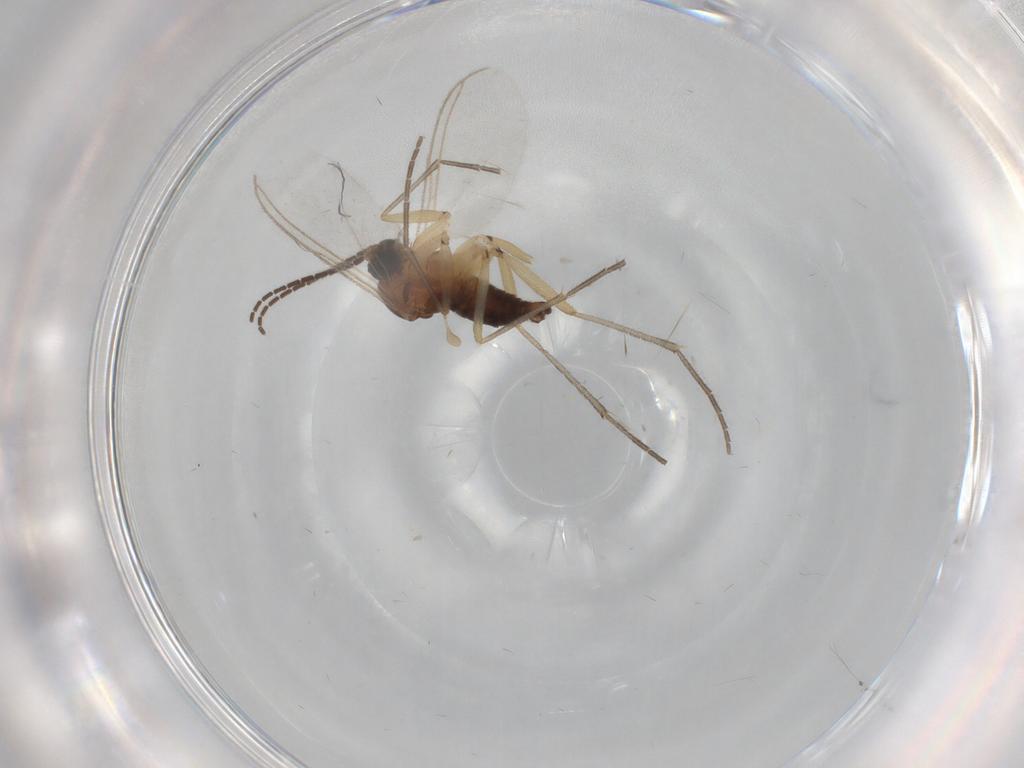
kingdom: Animalia
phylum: Arthropoda
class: Insecta
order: Diptera
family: Sciaridae
